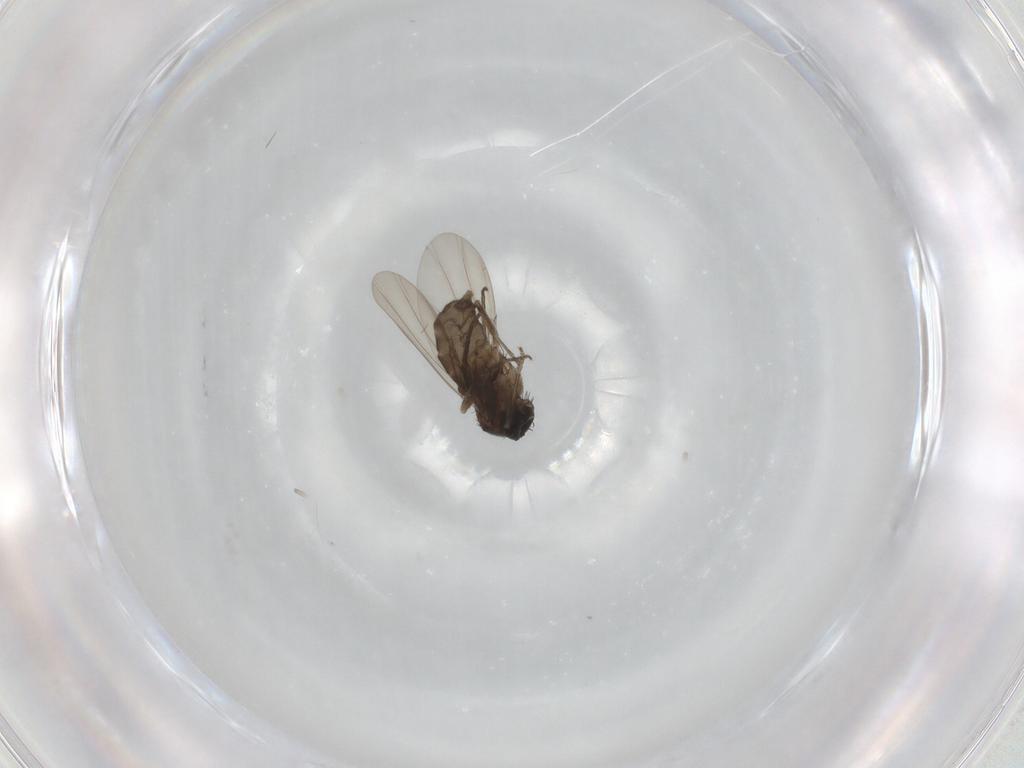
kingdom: Animalia
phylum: Arthropoda
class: Insecta
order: Diptera
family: Phoridae
